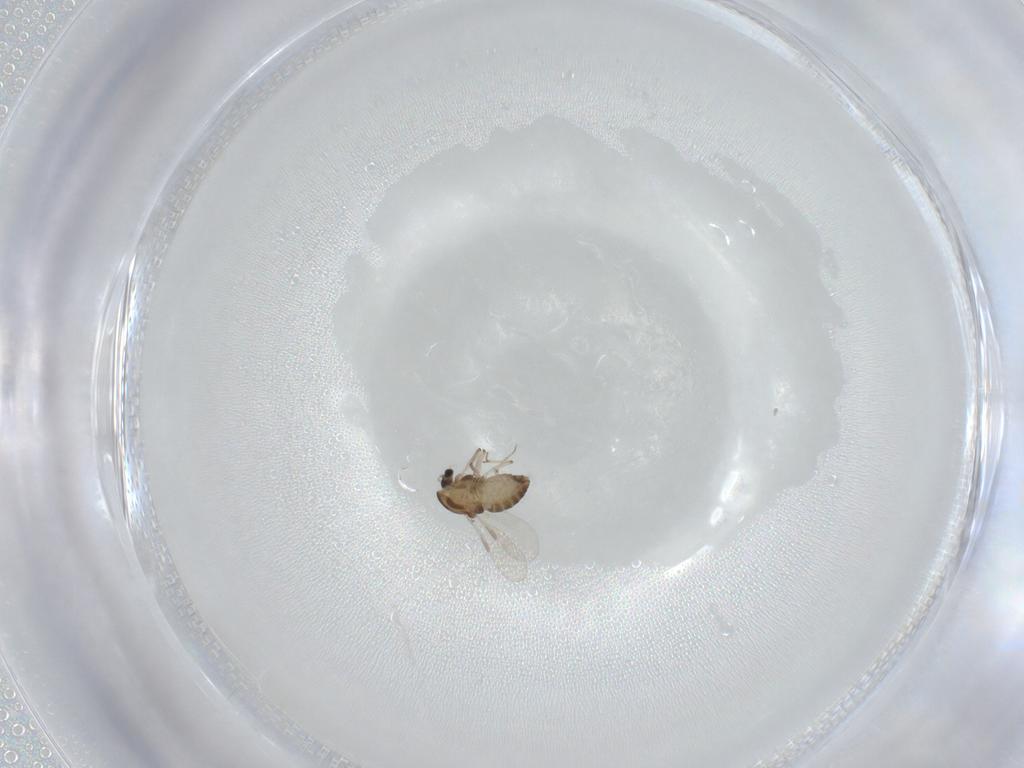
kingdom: Animalia
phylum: Arthropoda
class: Insecta
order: Diptera
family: Chironomidae
